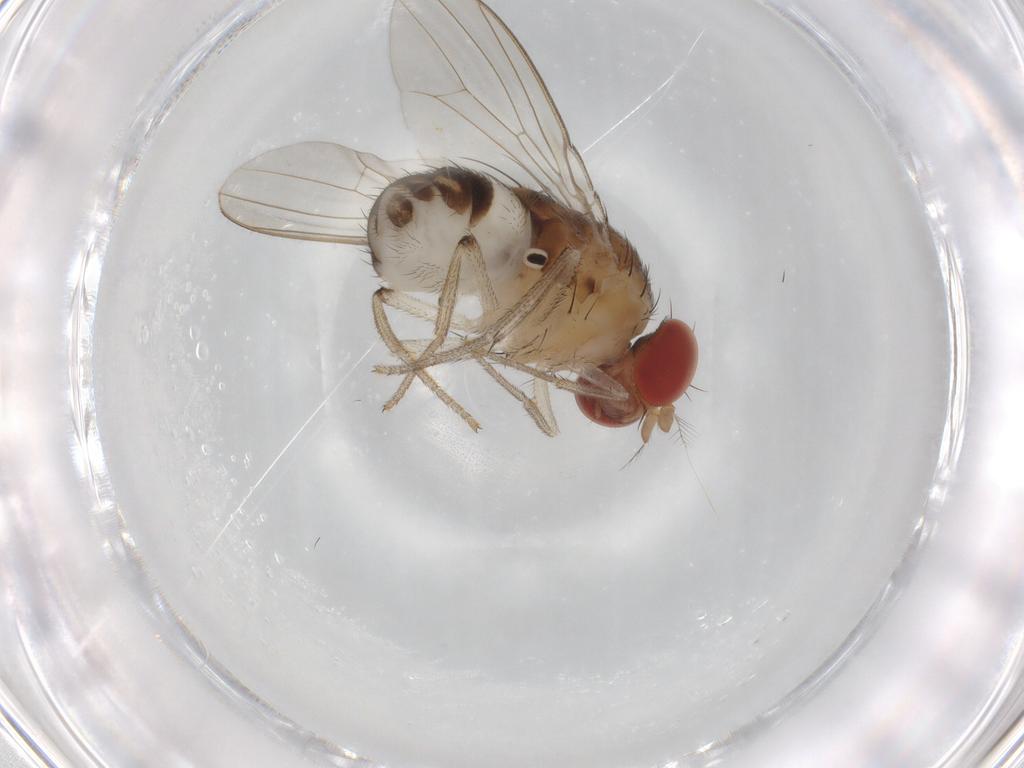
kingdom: Animalia
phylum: Arthropoda
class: Insecta
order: Diptera
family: Drosophilidae
